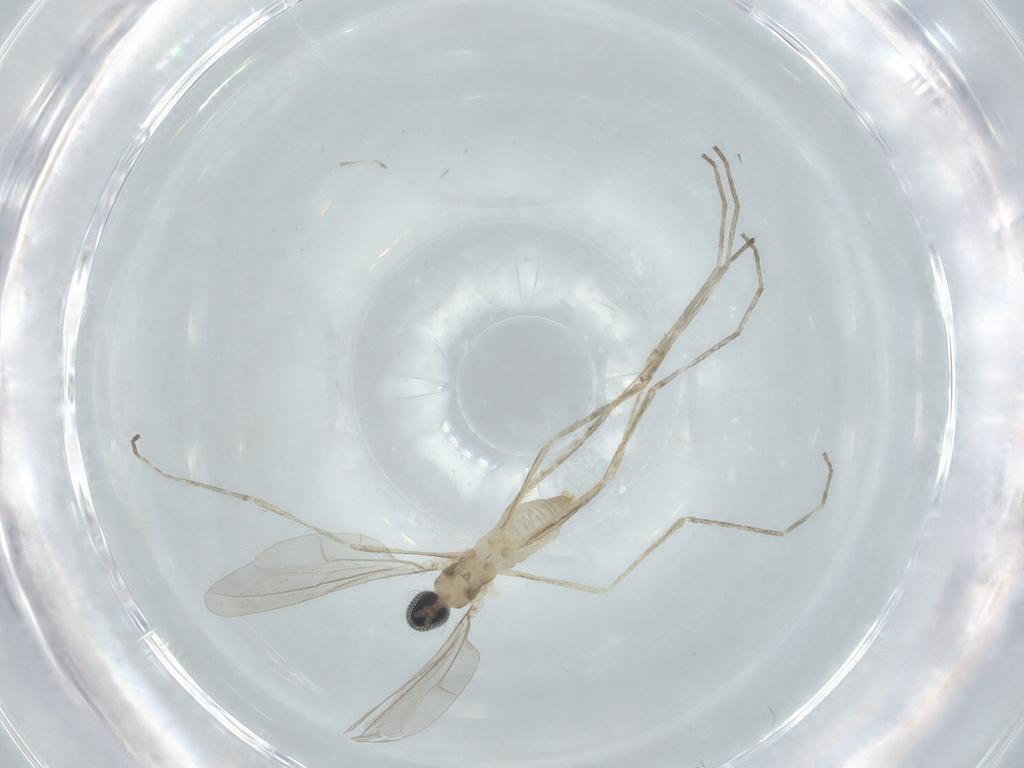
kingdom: Animalia
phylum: Arthropoda
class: Insecta
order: Diptera
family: Cecidomyiidae
